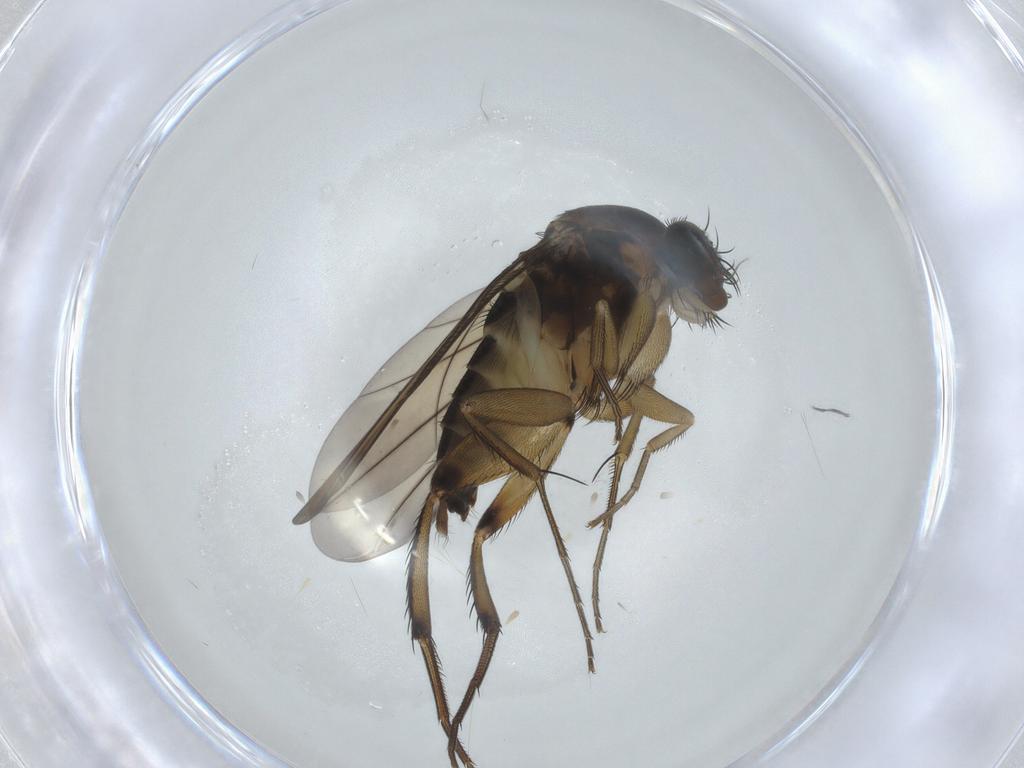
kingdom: Animalia
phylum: Arthropoda
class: Insecta
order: Diptera
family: Phoridae
